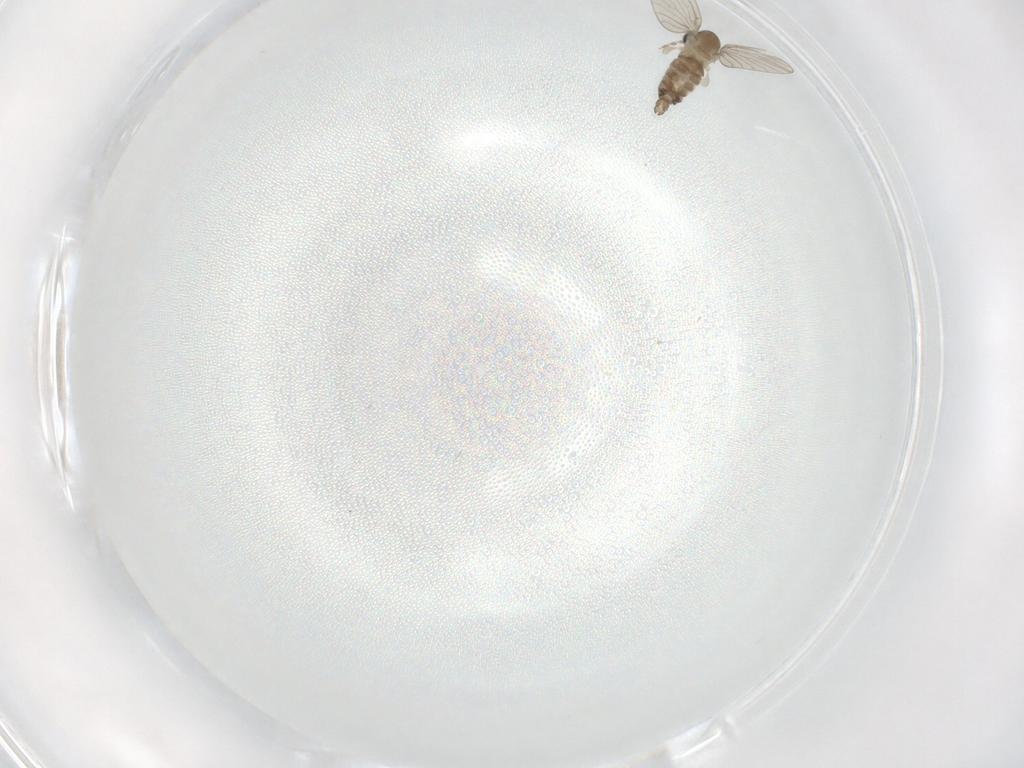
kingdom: Animalia
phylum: Arthropoda
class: Insecta
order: Diptera
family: Psychodidae
